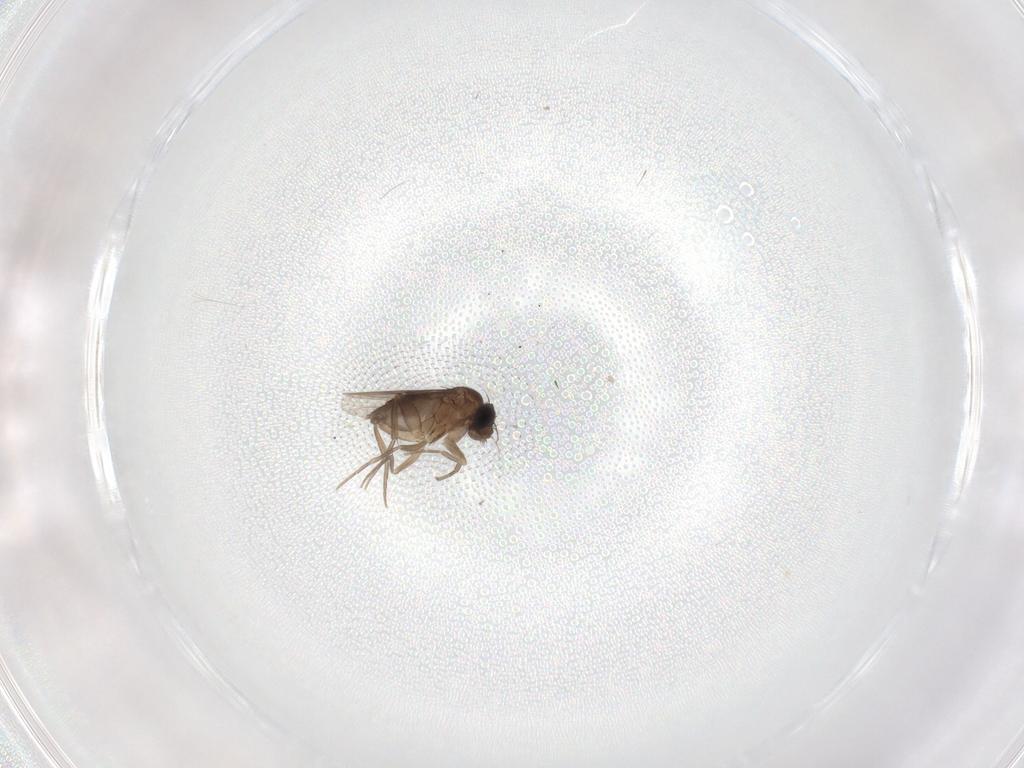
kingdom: Animalia
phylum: Arthropoda
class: Insecta
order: Diptera
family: Phoridae
